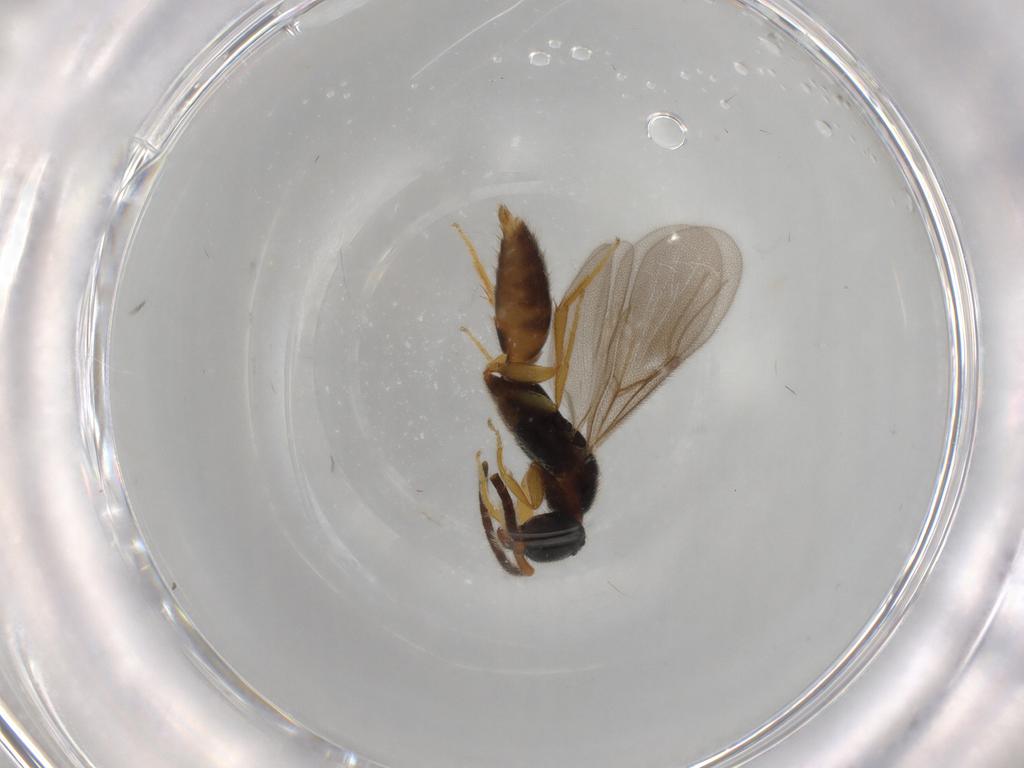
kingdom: Animalia
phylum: Arthropoda
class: Insecta
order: Hymenoptera
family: Formicidae
